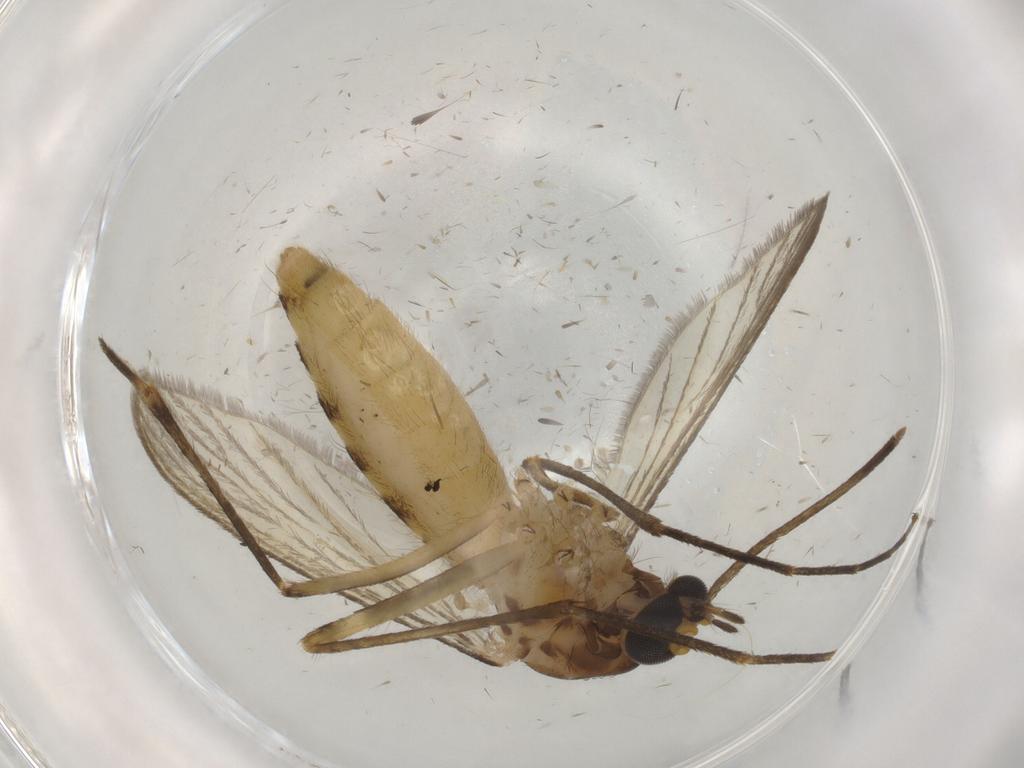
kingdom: Animalia
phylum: Arthropoda
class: Insecta
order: Diptera
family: Culicidae
